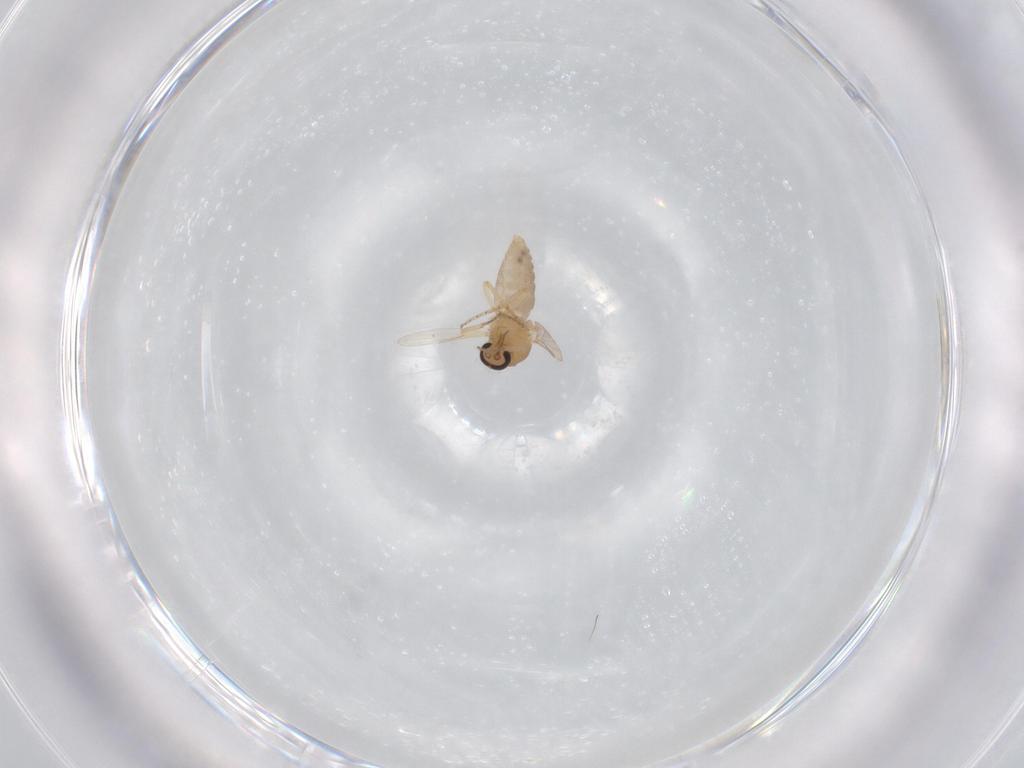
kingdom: Animalia
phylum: Arthropoda
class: Insecta
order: Diptera
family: Ceratopogonidae
